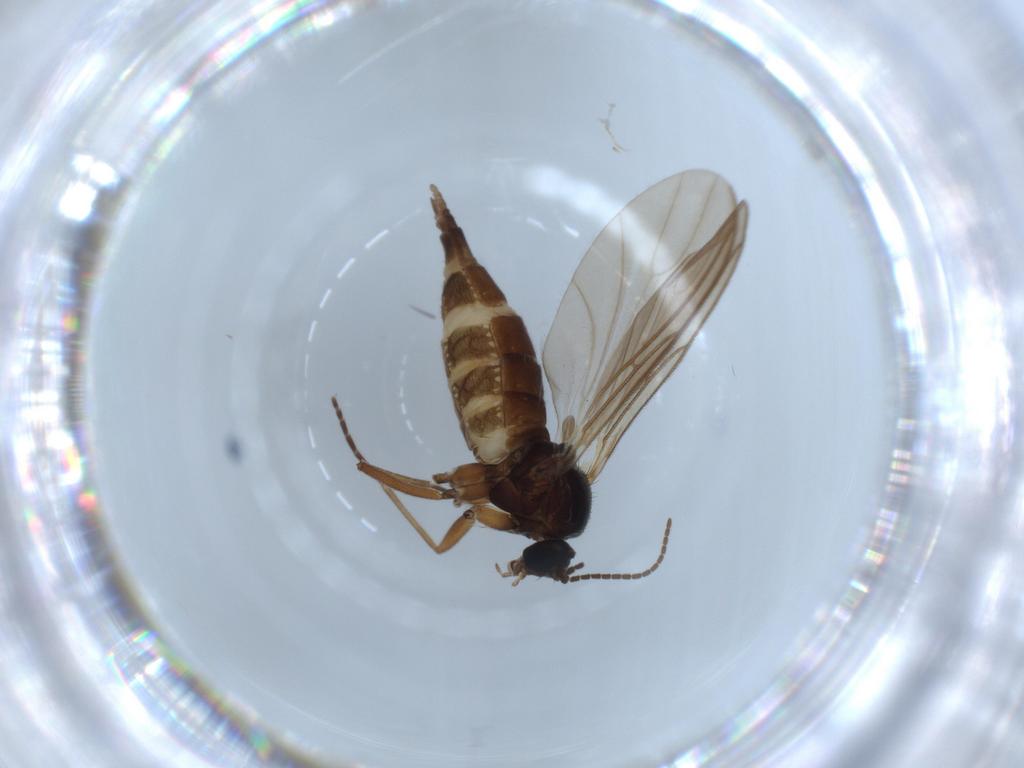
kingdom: Animalia
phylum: Arthropoda
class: Insecta
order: Diptera
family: Sciaridae
